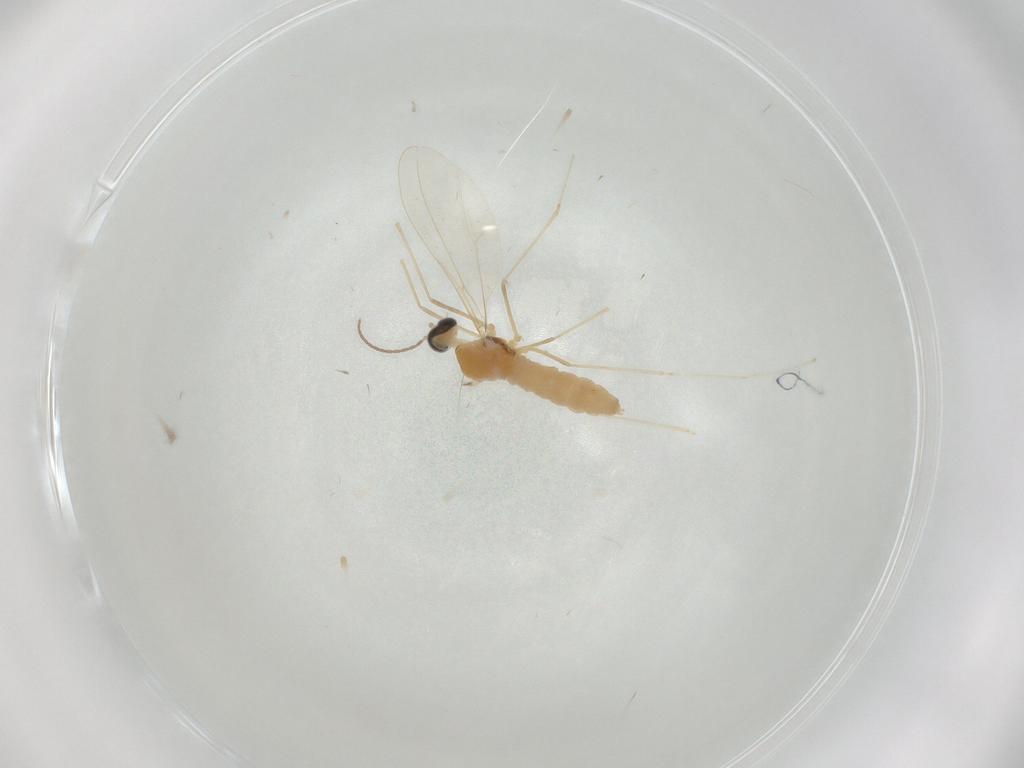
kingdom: Animalia
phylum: Arthropoda
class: Insecta
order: Diptera
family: Cecidomyiidae
